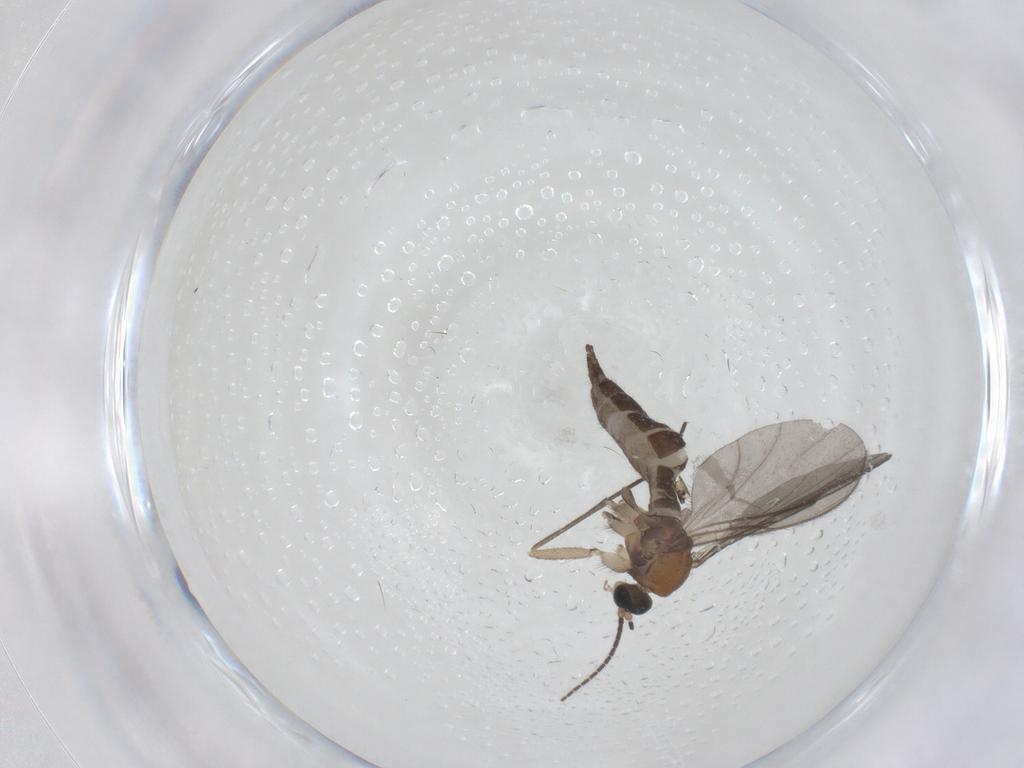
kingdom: Animalia
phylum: Arthropoda
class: Insecta
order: Diptera
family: Sciaridae
